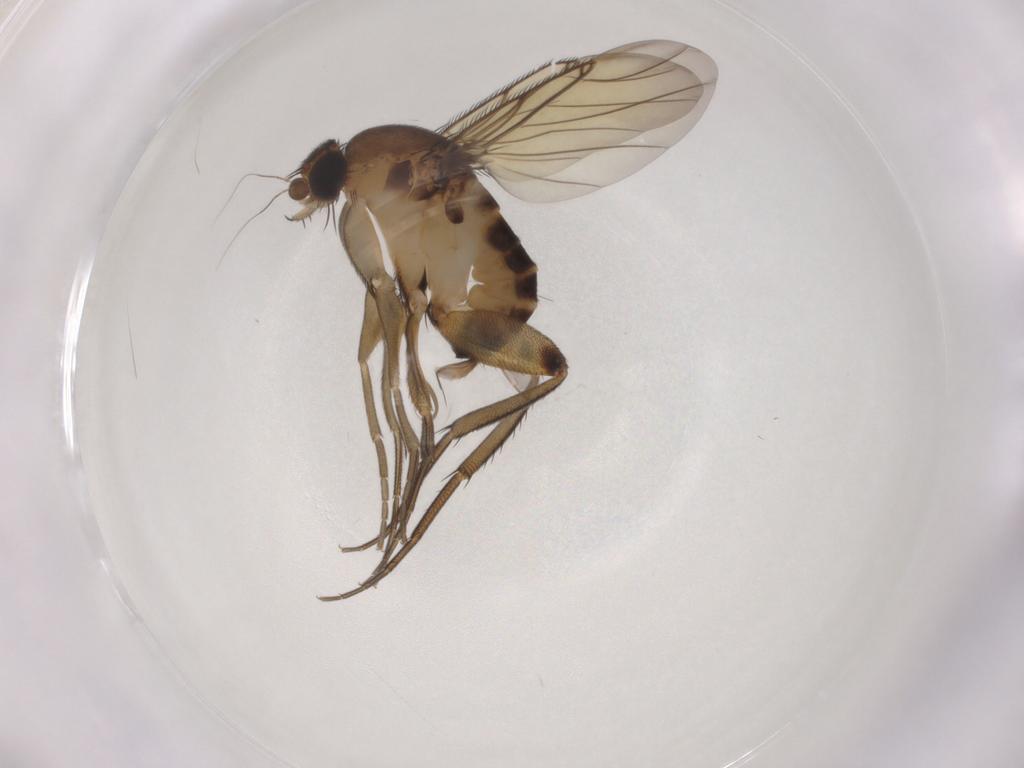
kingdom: Animalia
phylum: Arthropoda
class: Insecta
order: Diptera
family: Phoridae
